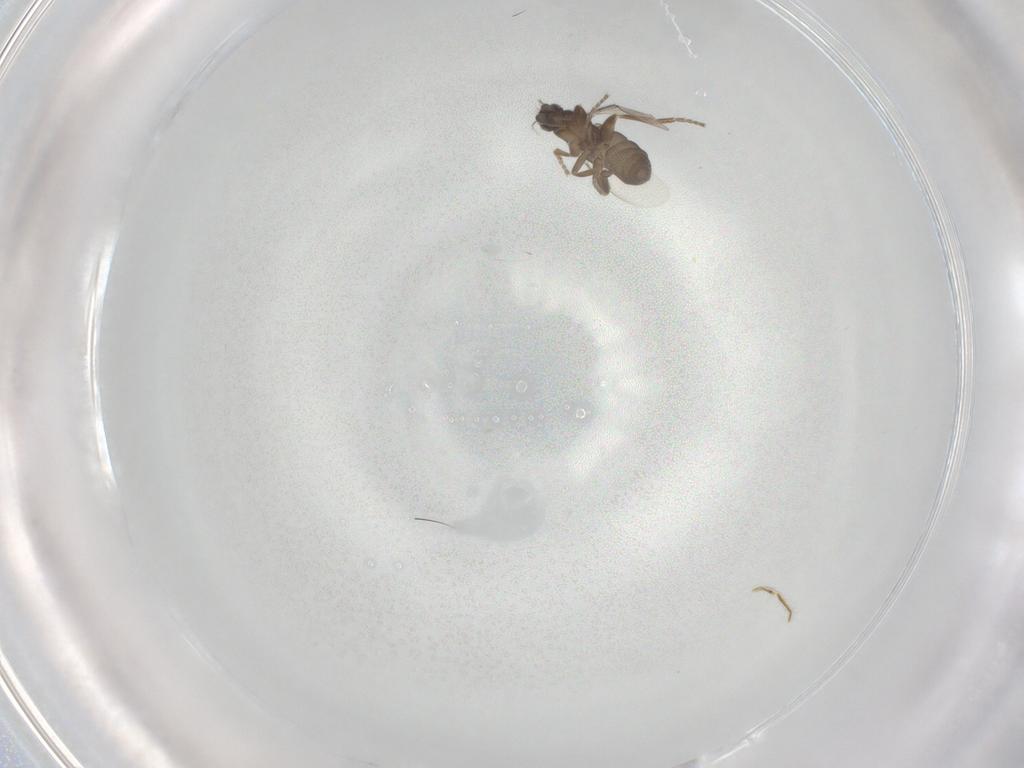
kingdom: Animalia
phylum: Arthropoda
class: Insecta
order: Diptera
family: Phoridae
